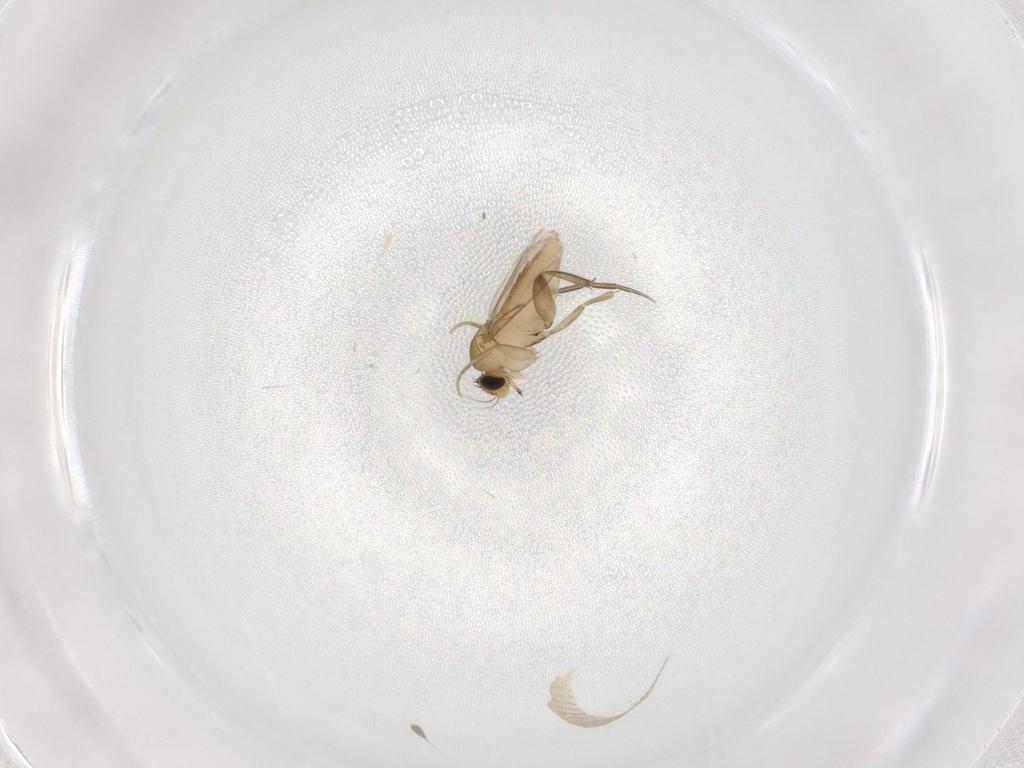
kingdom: Animalia
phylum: Arthropoda
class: Insecta
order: Diptera
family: Phoridae
